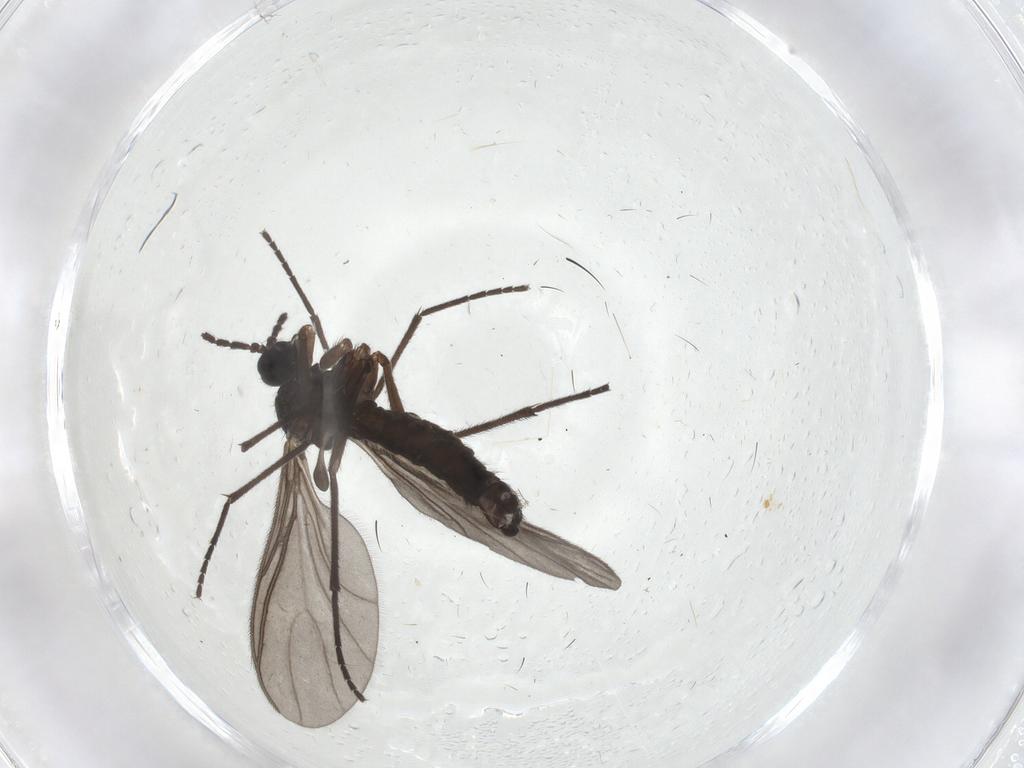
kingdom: Animalia
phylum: Arthropoda
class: Insecta
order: Diptera
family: Sciaridae
